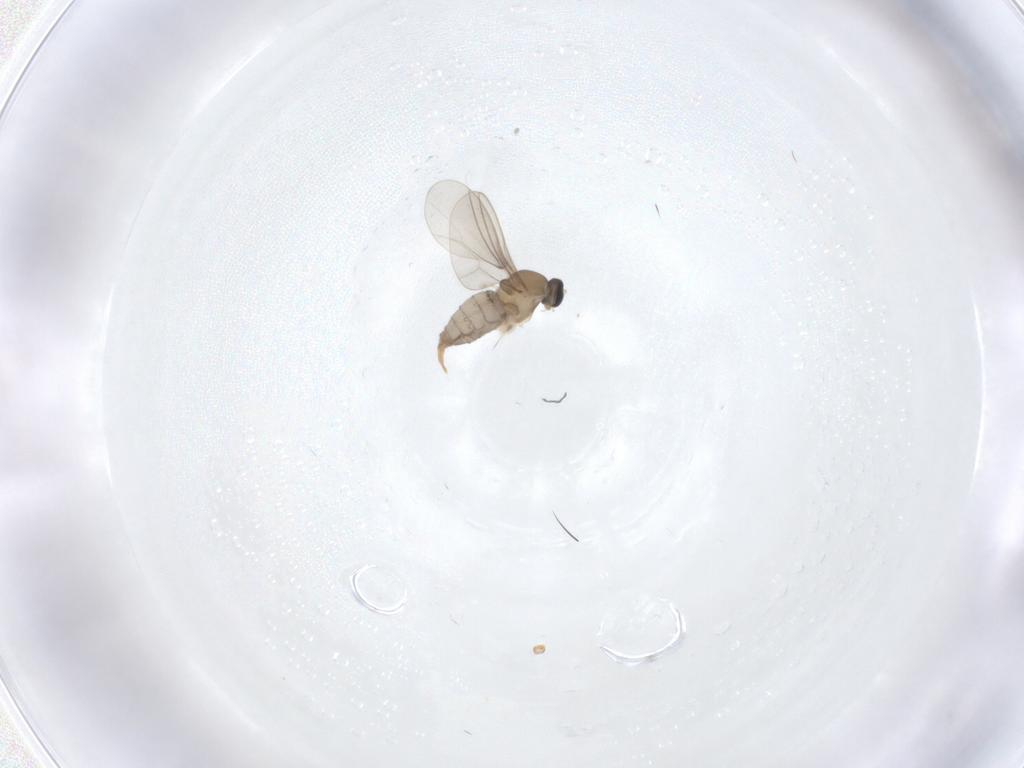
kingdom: Animalia
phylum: Arthropoda
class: Insecta
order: Diptera
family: Cecidomyiidae
